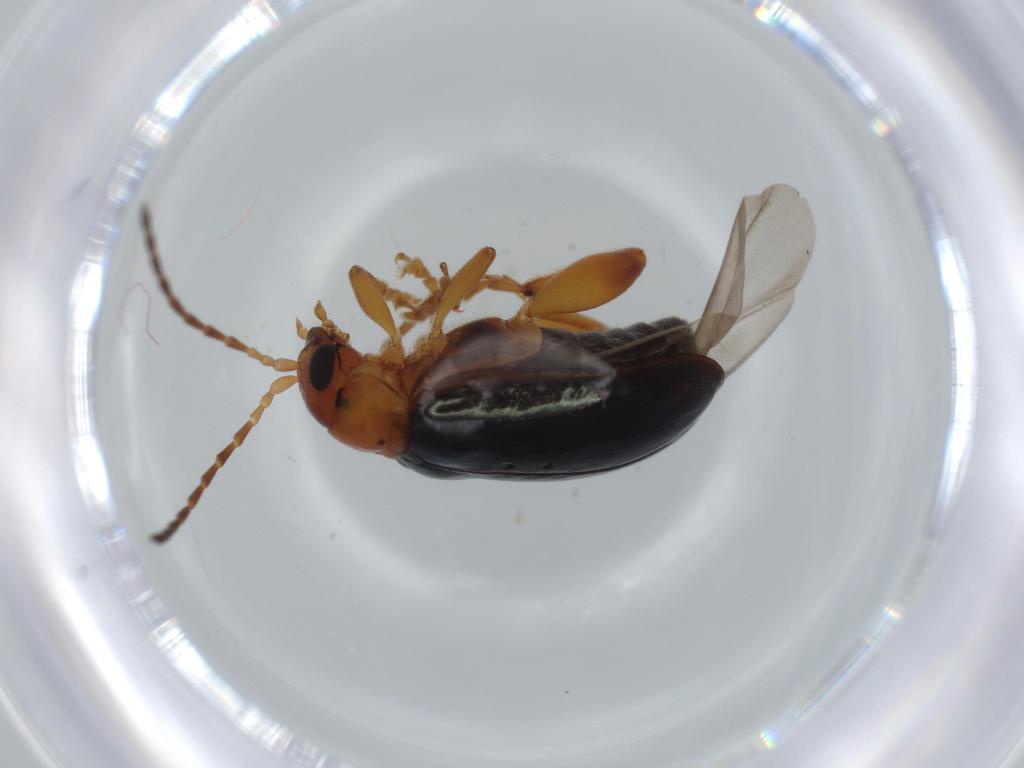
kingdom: Animalia
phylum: Arthropoda
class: Insecta
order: Coleoptera
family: Chrysomelidae
